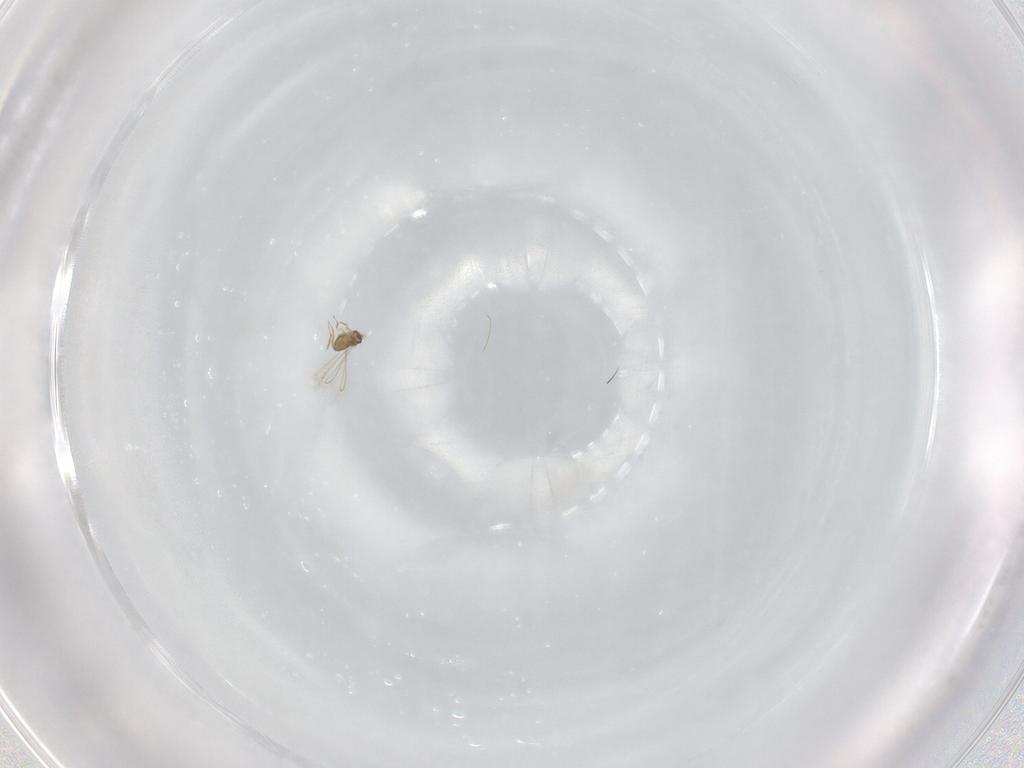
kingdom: Animalia
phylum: Arthropoda
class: Insecta
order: Hymenoptera
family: Mymaridae
